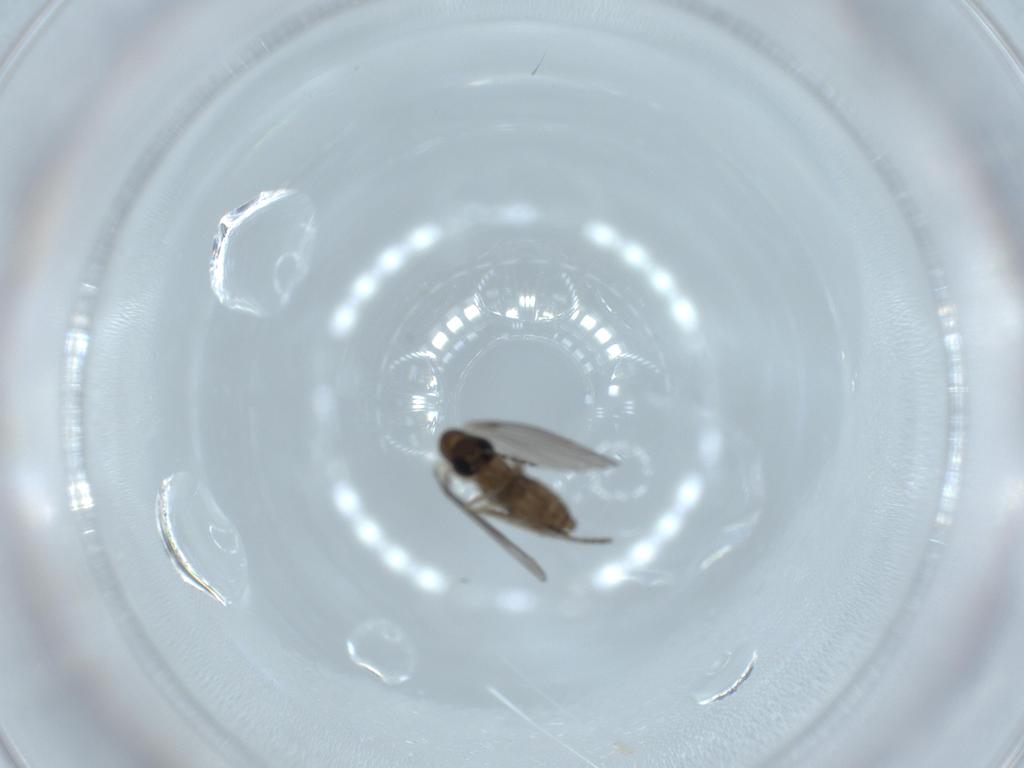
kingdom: Animalia
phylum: Arthropoda
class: Insecta
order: Diptera
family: Psychodidae
